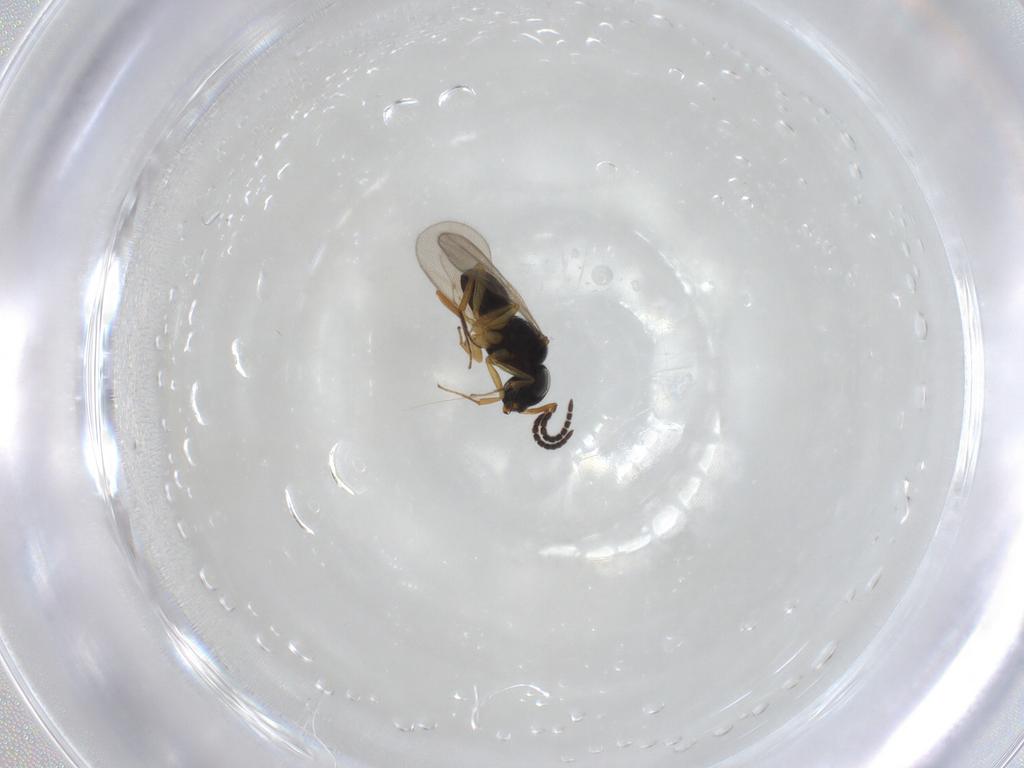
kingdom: Animalia
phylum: Arthropoda
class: Insecta
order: Hymenoptera
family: Scelionidae
